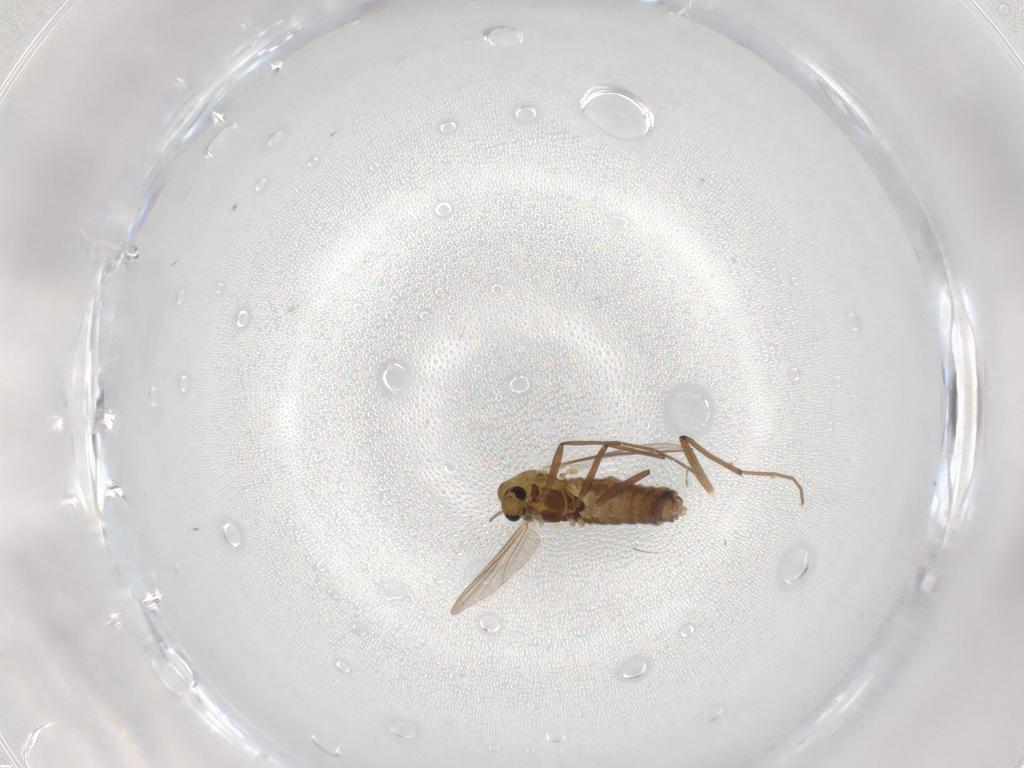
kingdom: Animalia
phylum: Arthropoda
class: Insecta
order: Diptera
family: Chironomidae
